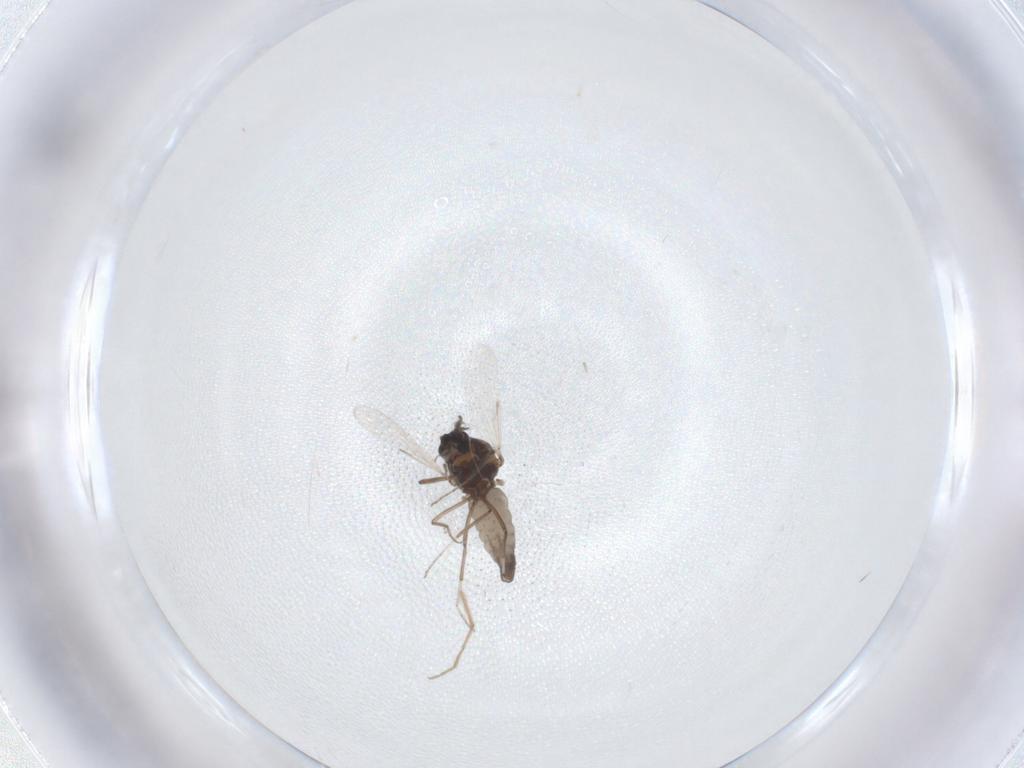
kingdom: Animalia
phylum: Arthropoda
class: Insecta
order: Diptera
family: Ceratopogonidae
